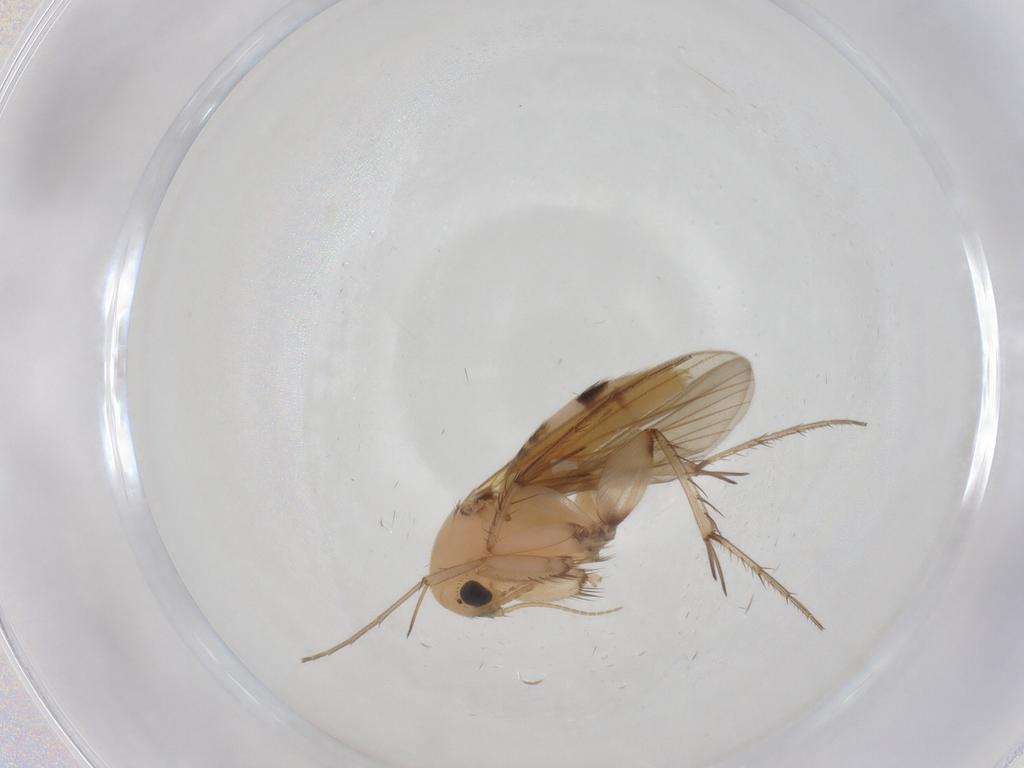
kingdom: Animalia
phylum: Arthropoda
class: Insecta
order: Diptera
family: Mycetophilidae
